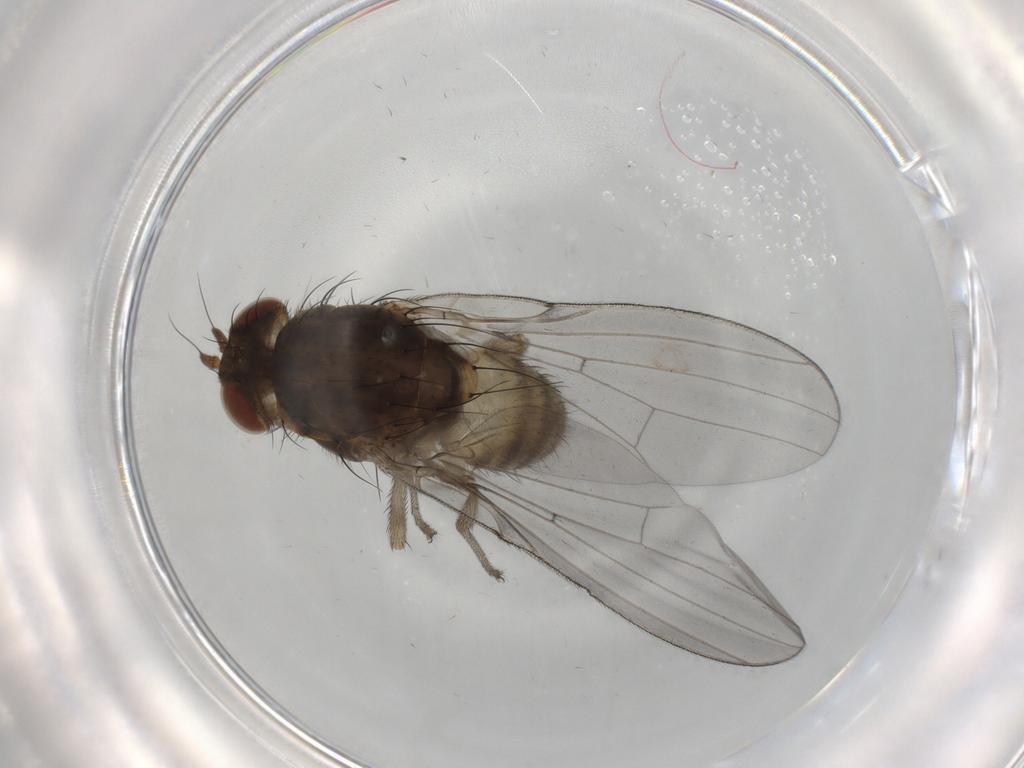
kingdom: Animalia
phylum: Arthropoda
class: Insecta
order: Diptera
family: Lauxaniidae
